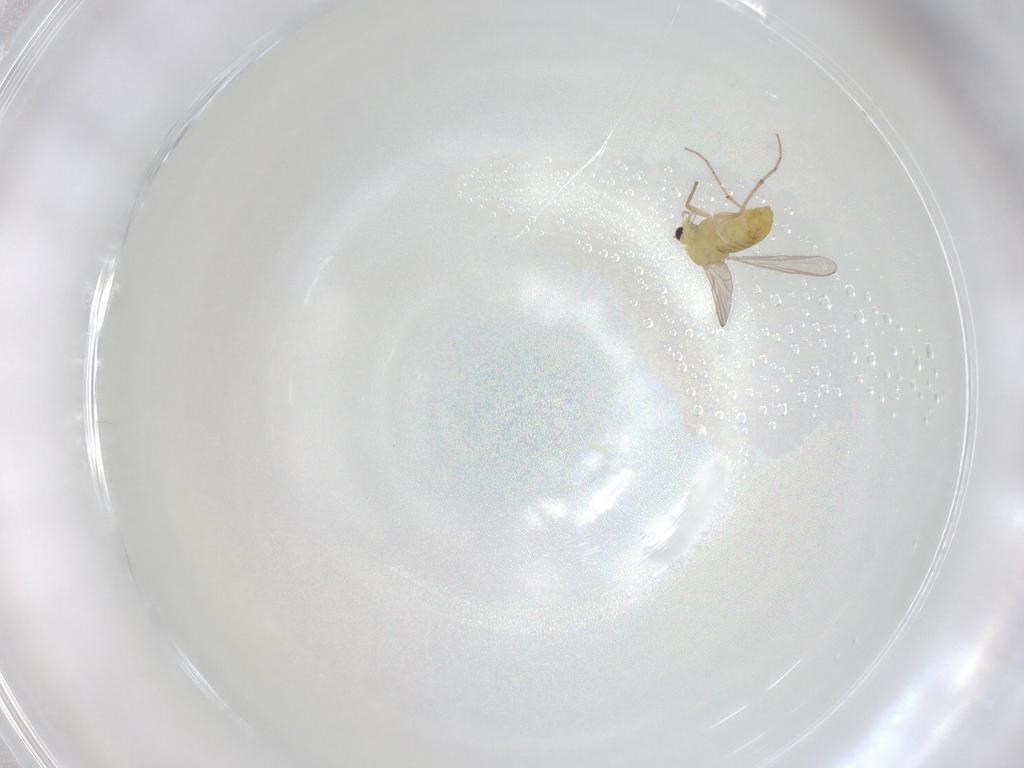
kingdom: Animalia
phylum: Arthropoda
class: Insecta
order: Diptera
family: Chironomidae
